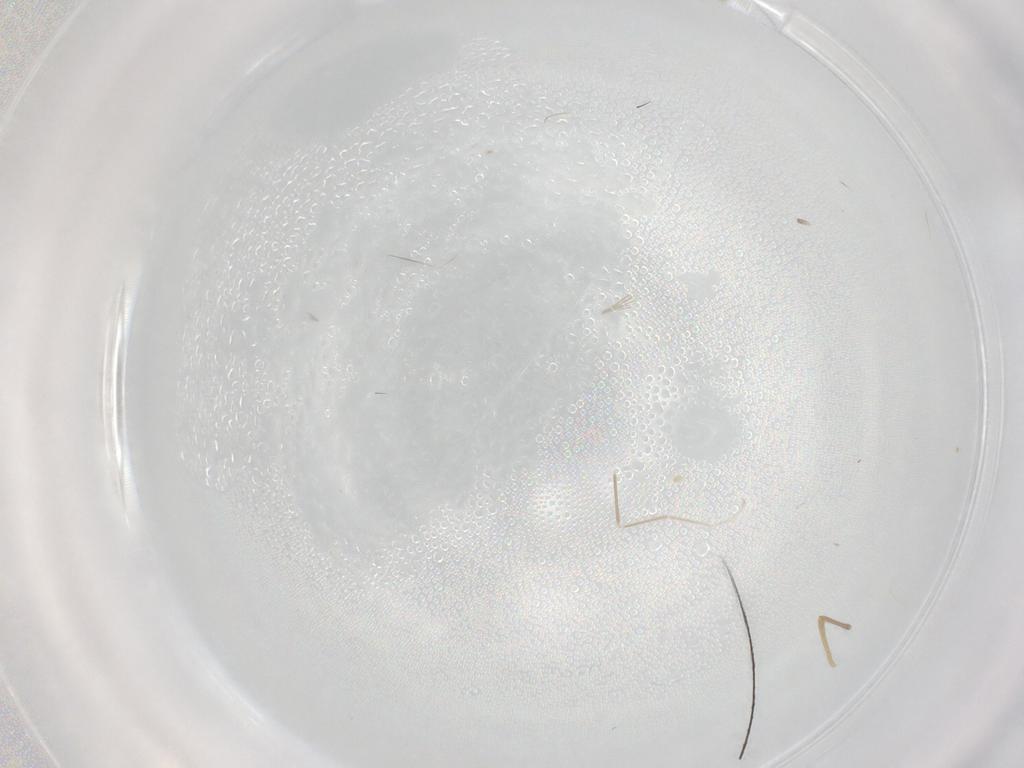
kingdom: Animalia
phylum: Arthropoda
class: Insecta
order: Diptera
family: Chironomidae
